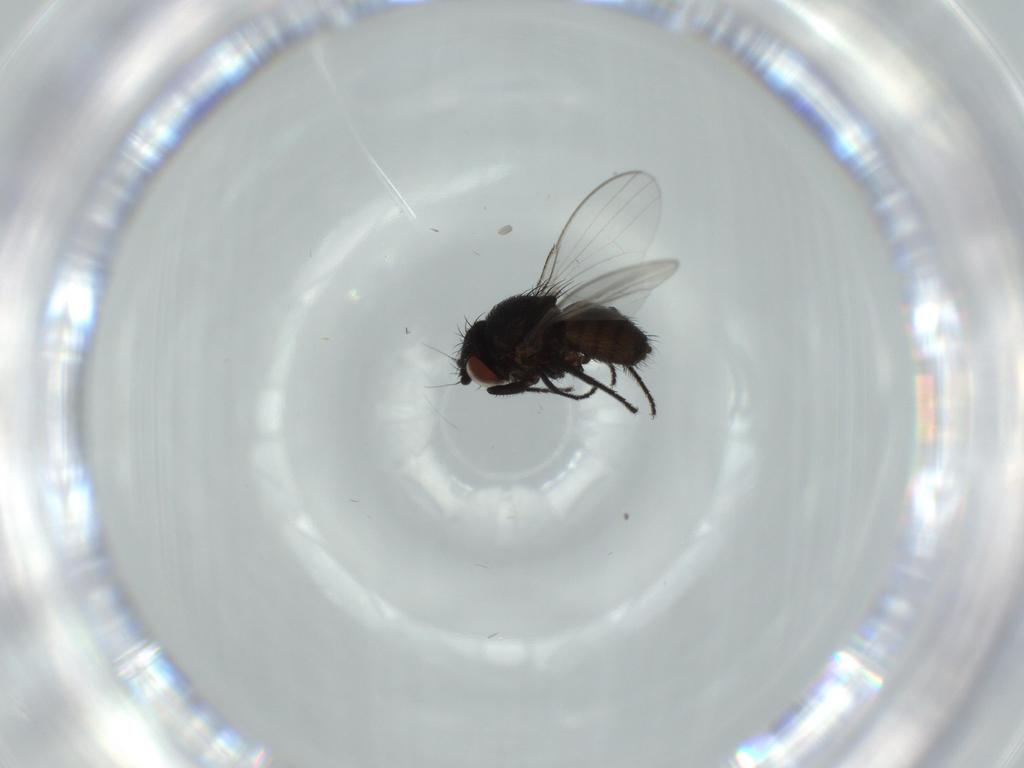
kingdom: Animalia
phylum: Arthropoda
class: Insecta
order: Diptera
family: Milichiidae
